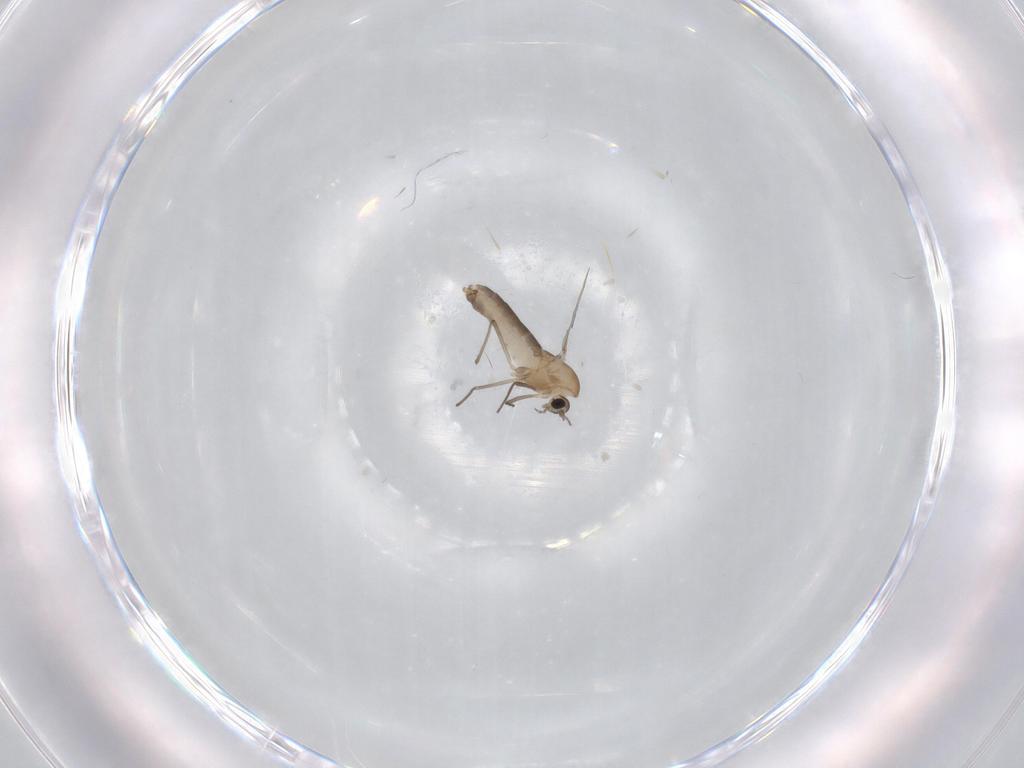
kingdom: Animalia
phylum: Arthropoda
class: Insecta
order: Diptera
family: Chironomidae
